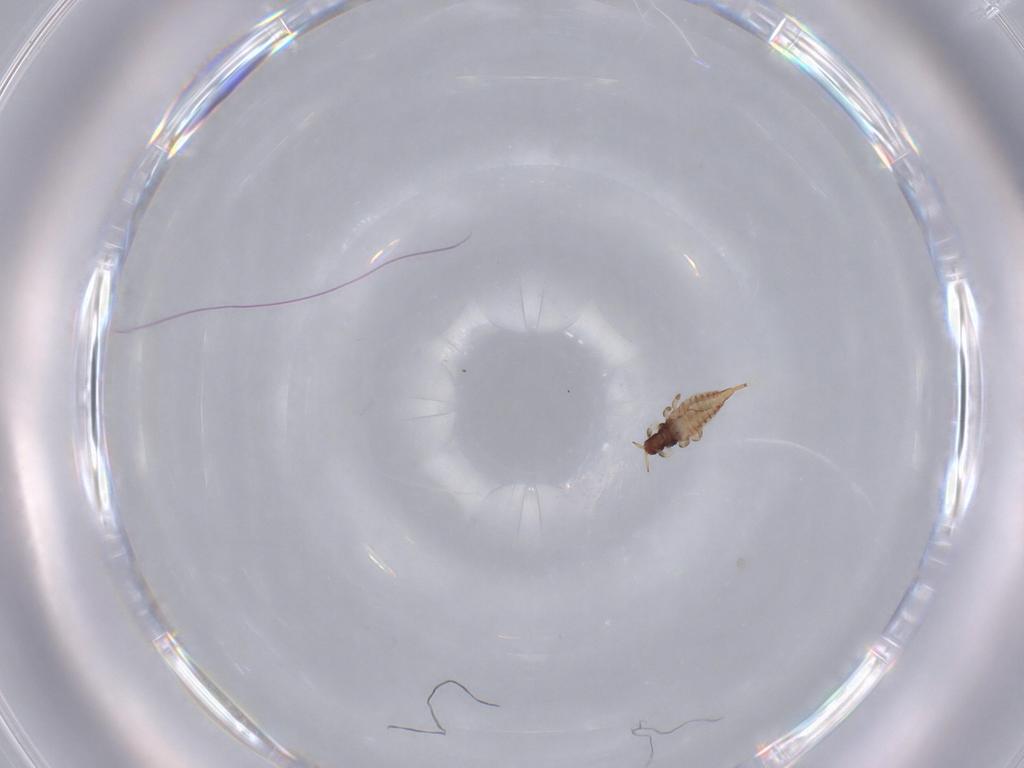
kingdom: Animalia
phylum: Arthropoda
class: Insecta
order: Thysanoptera
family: Phlaeothripidae
